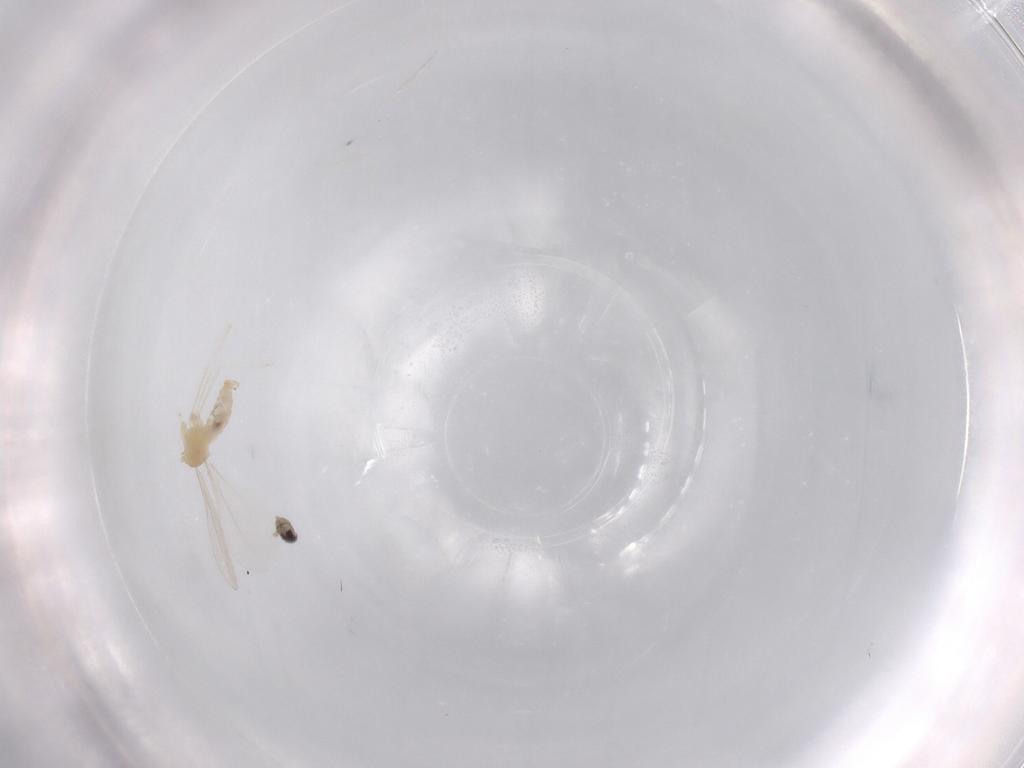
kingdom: Animalia
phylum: Arthropoda
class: Insecta
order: Diptera
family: Cecidomyiidae
